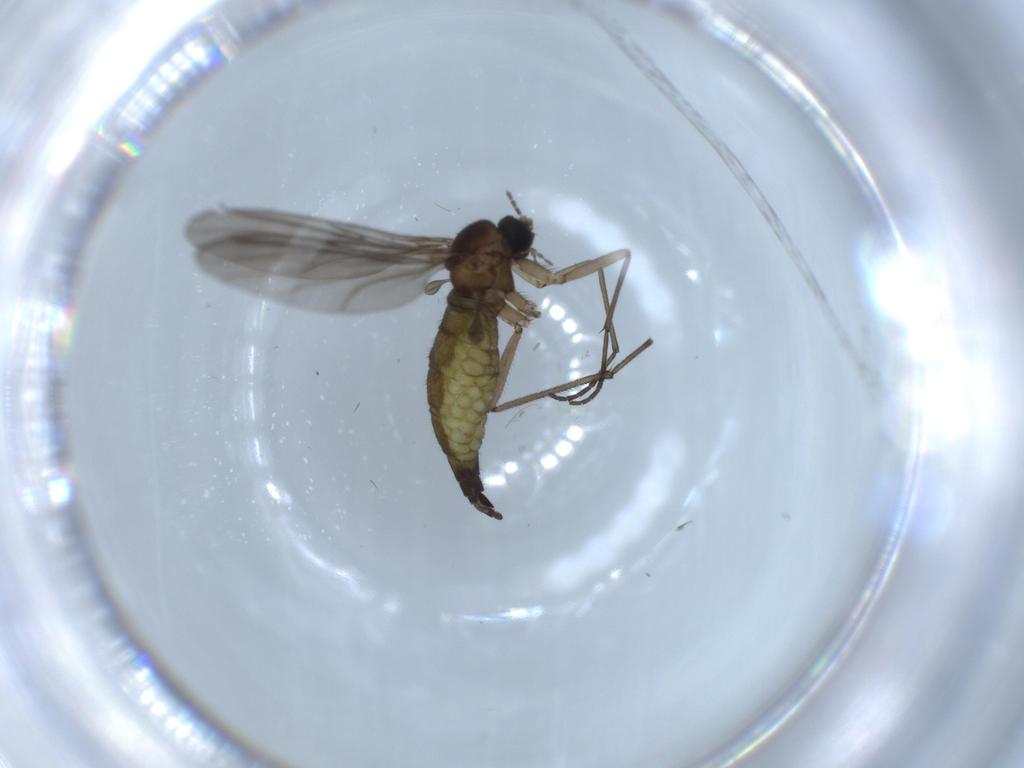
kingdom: Animalia
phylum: Arthropoda
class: Insecta
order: Diptera
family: Sciaridae
